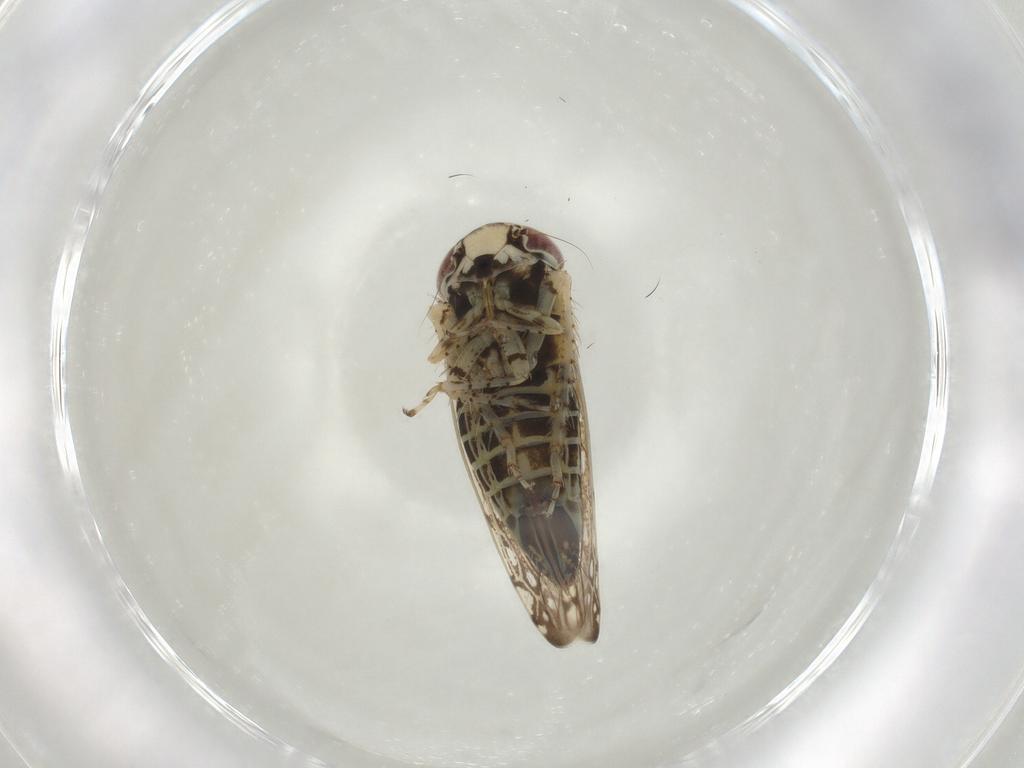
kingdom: Animalia
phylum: Arthropoda
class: Insecta
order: Hemiptera
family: Cicadellidae
